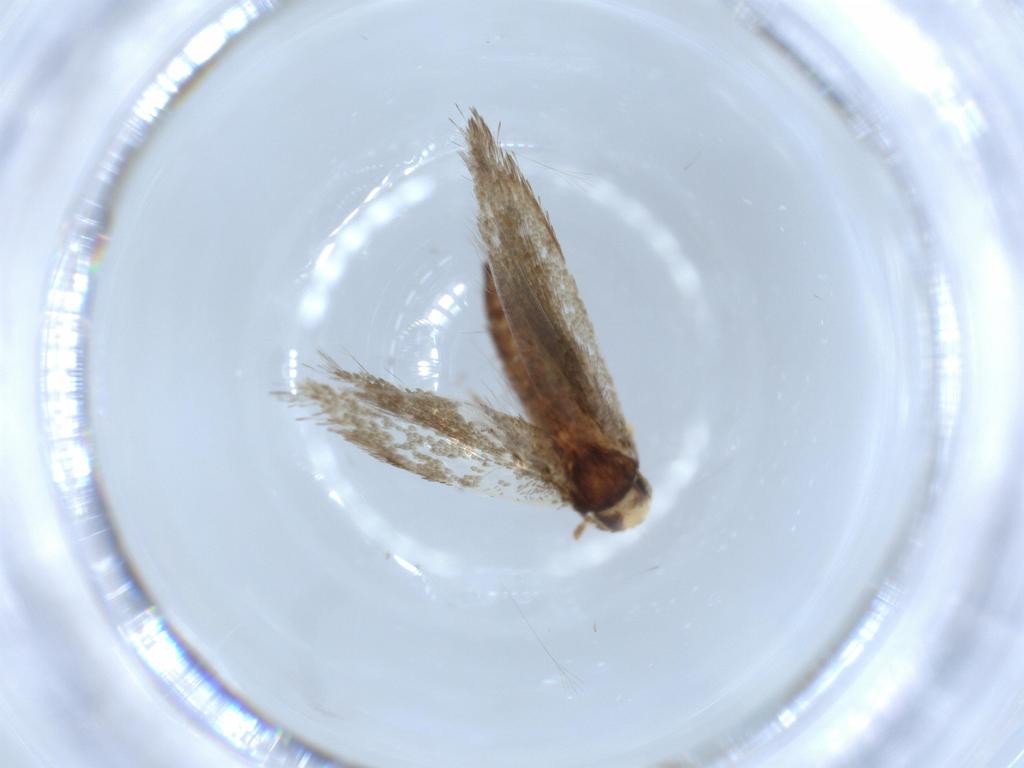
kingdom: Animalia
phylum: Arthropoda
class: Insecta
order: Lepidoptera
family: Tineidae
